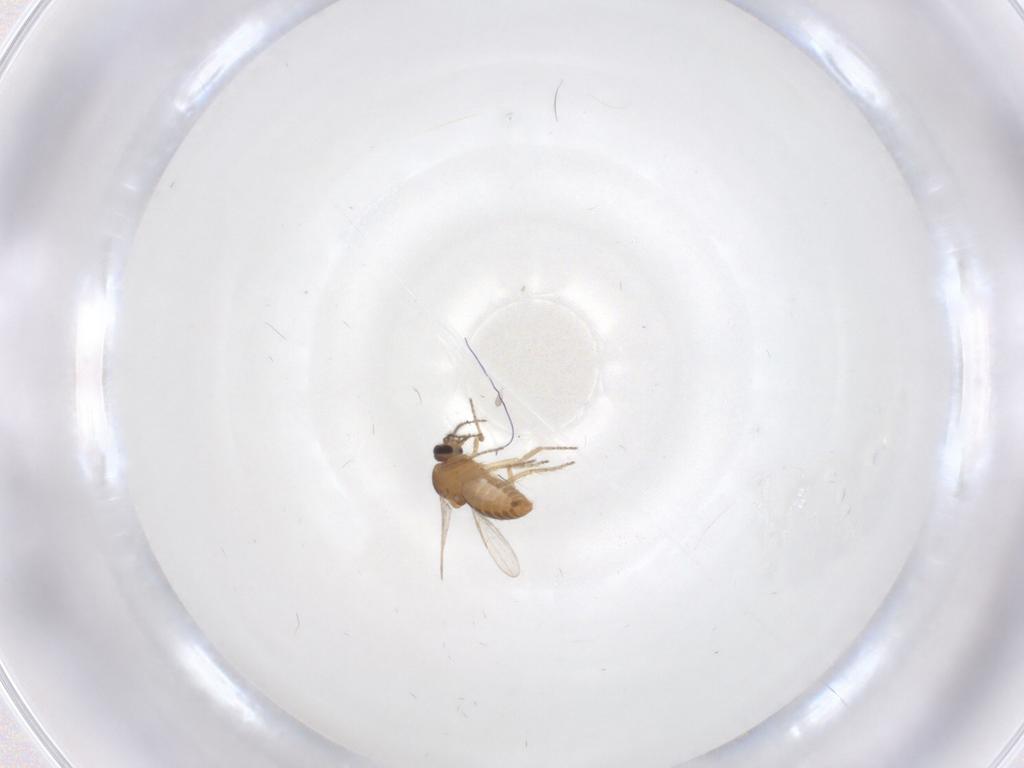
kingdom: Animalia
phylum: Arthropoda
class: Insecta
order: Diptera
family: Ceratopogonidae
